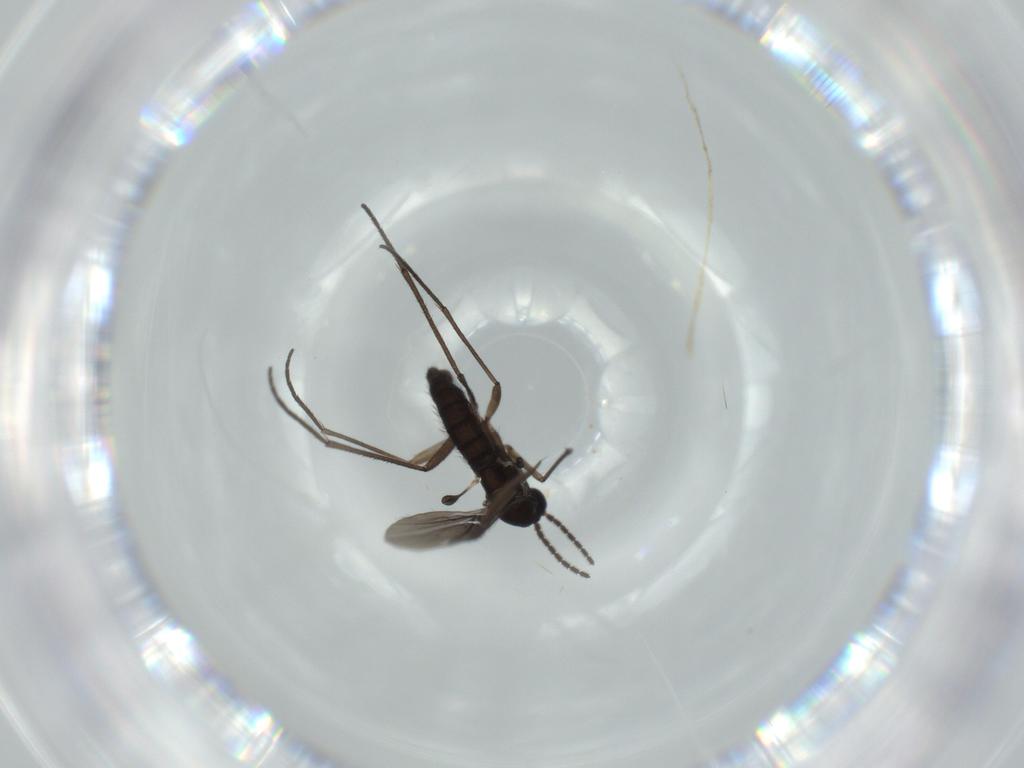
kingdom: Animalia
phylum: Arthropoda
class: Insecta
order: Diptera
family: Sciaridae
